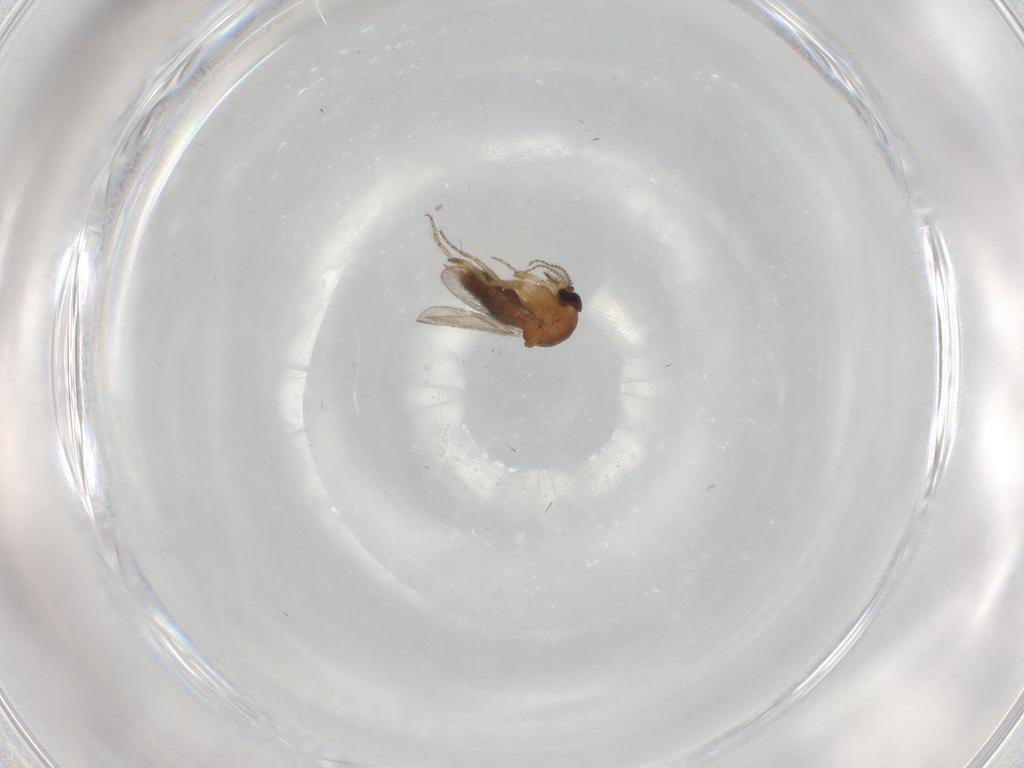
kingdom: Animalia
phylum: Arthropoda
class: Insecta
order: Diptera
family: Ceratopogonidae
